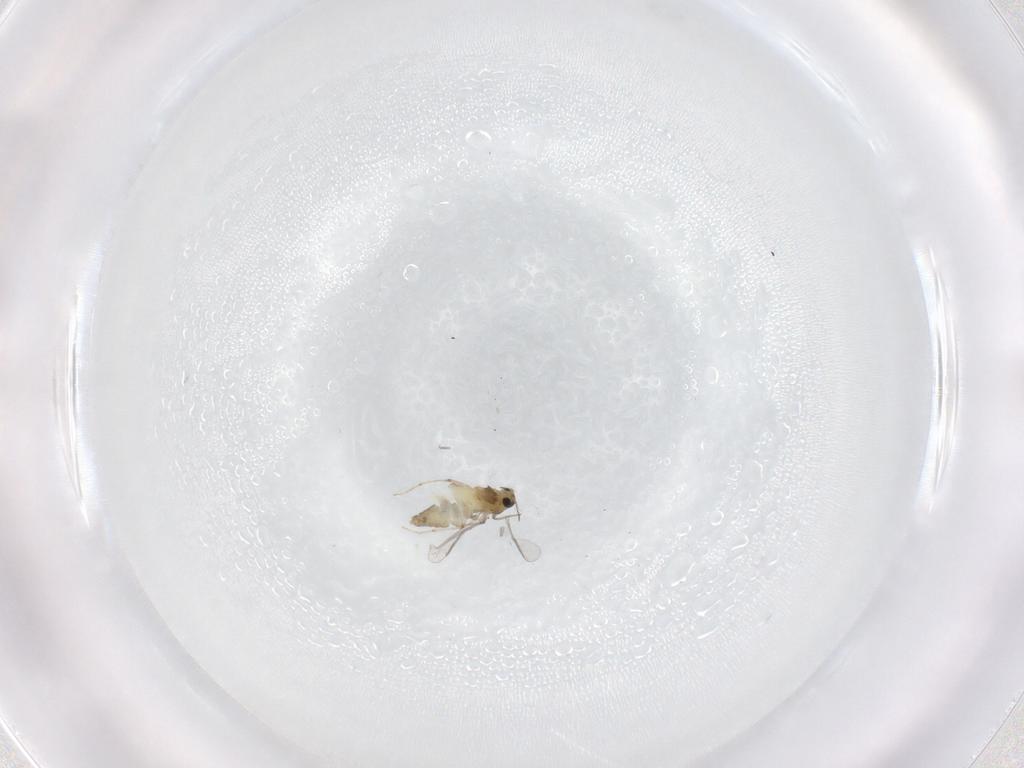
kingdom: Animalia
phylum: Arthropoda
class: Insecta
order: Diptera
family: Chironomidae
